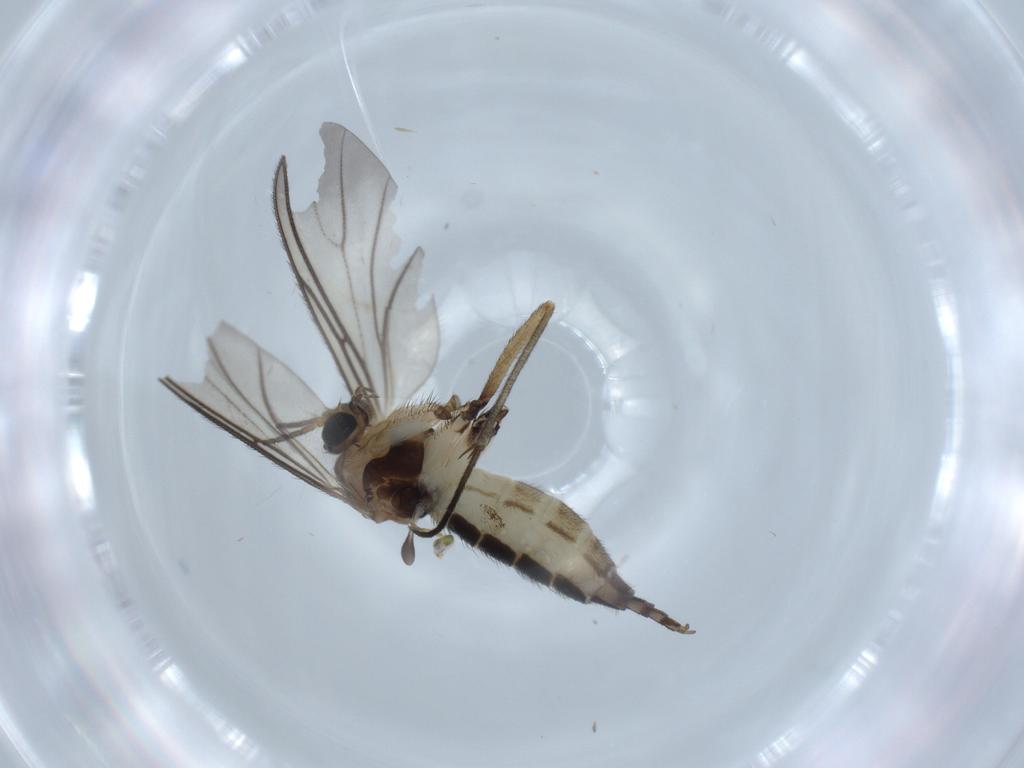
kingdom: Animalia
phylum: Arthropoda
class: Insecta
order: Diptera
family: Sciaridae
